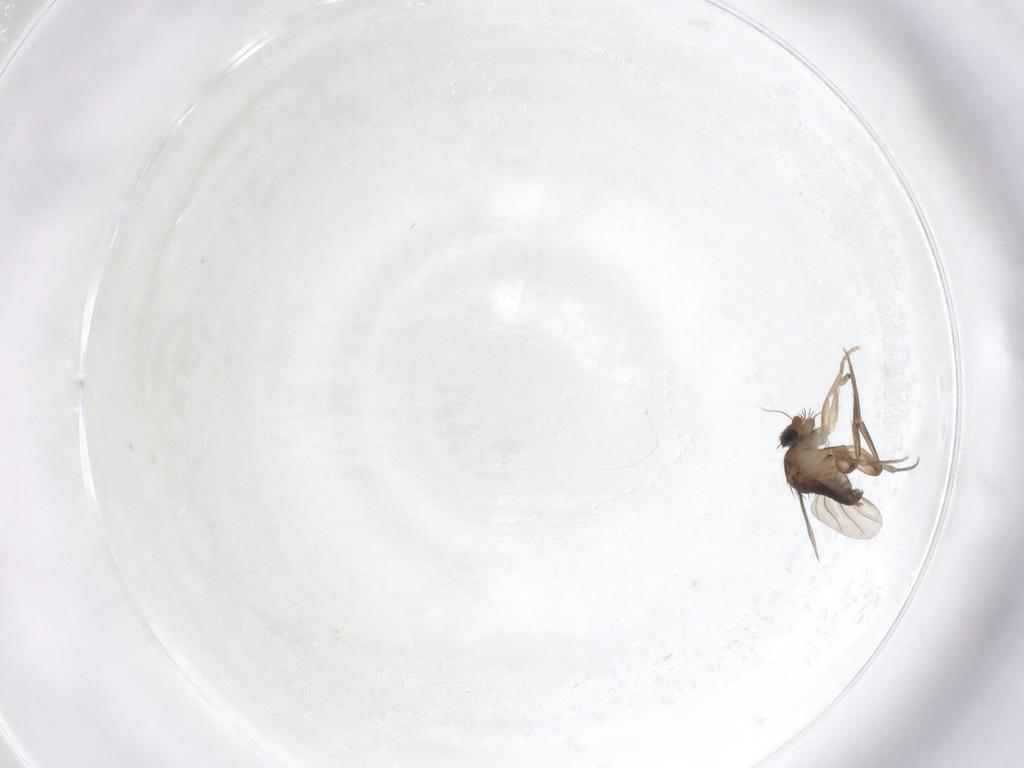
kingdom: Animalia
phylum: Arthropoda
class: Insecta
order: Diptera
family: Phoridae
